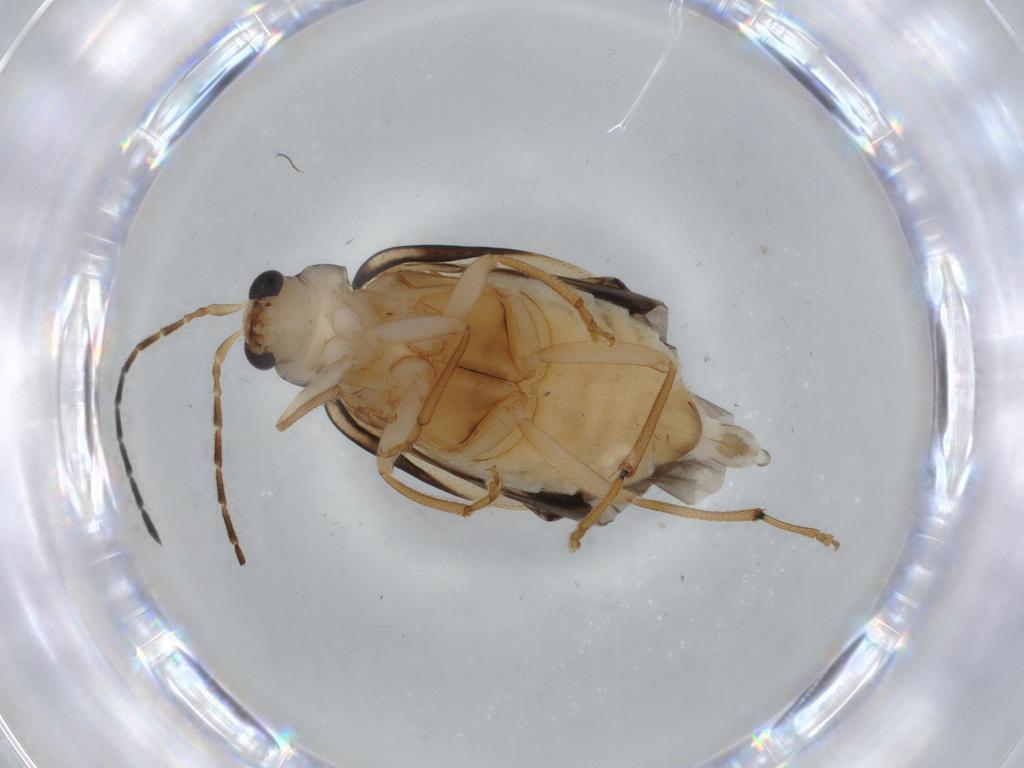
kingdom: Animalia
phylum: Arthropoda
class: Insecta
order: Coleoptera
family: Chrysomelidae
